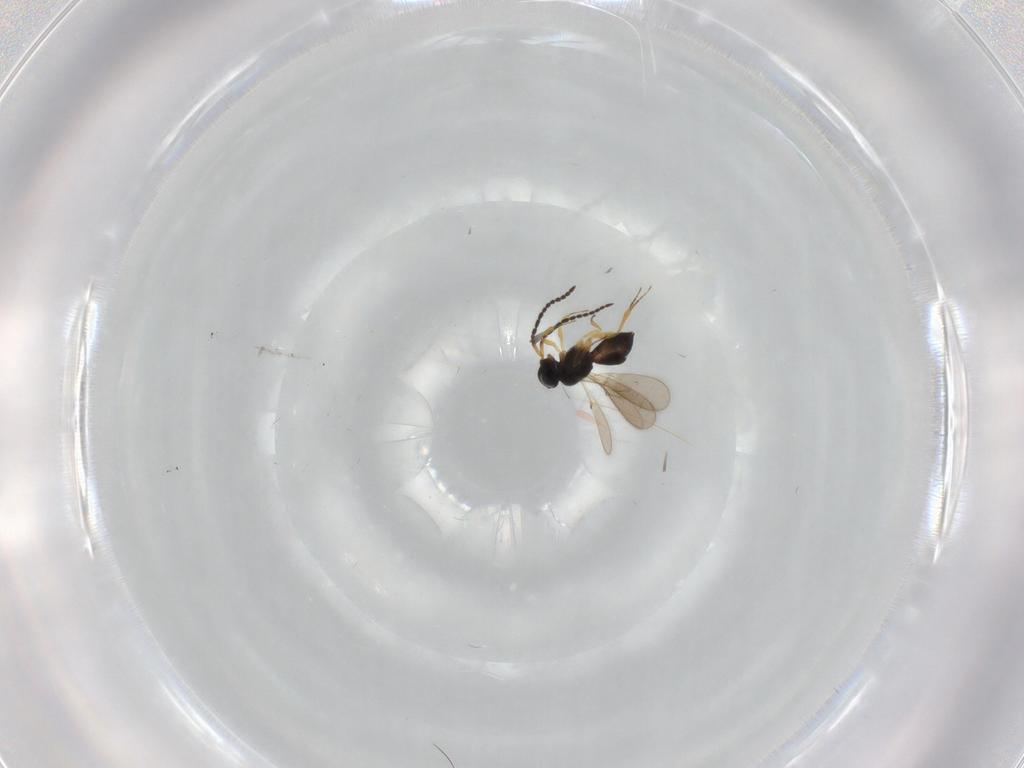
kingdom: Animalia
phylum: Arthropoda
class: Insecta
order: Hymenoptera
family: Scelionidae
